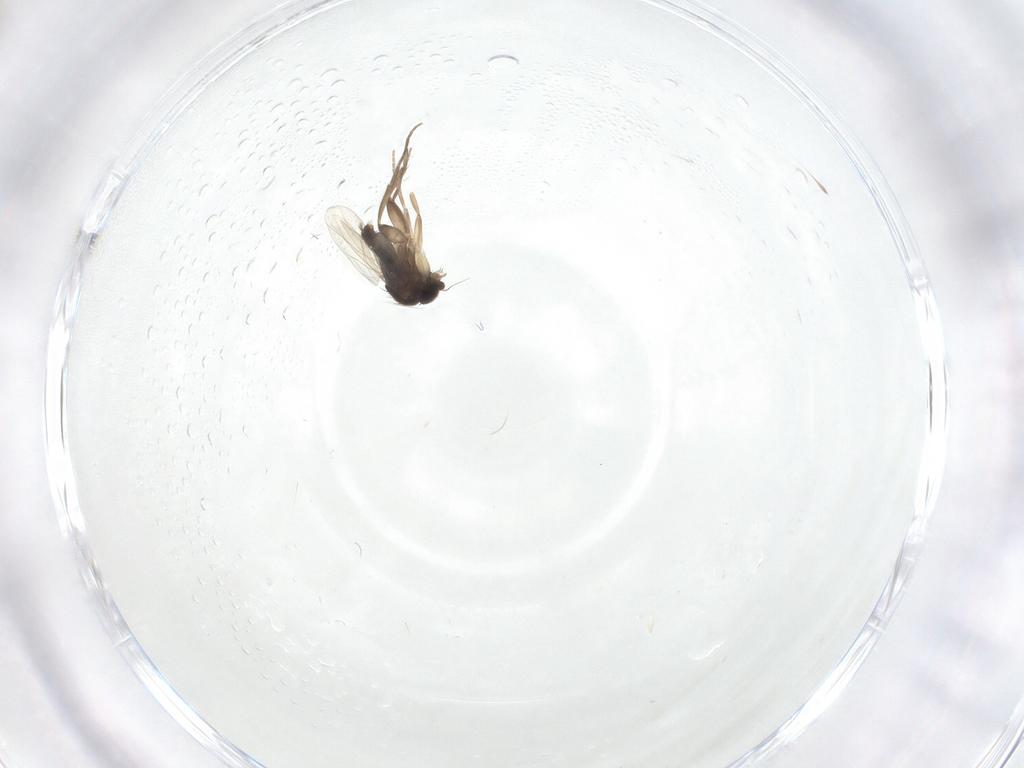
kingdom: Animalia
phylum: Arthropoda
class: Insecta
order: Diptera
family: Phoridae
